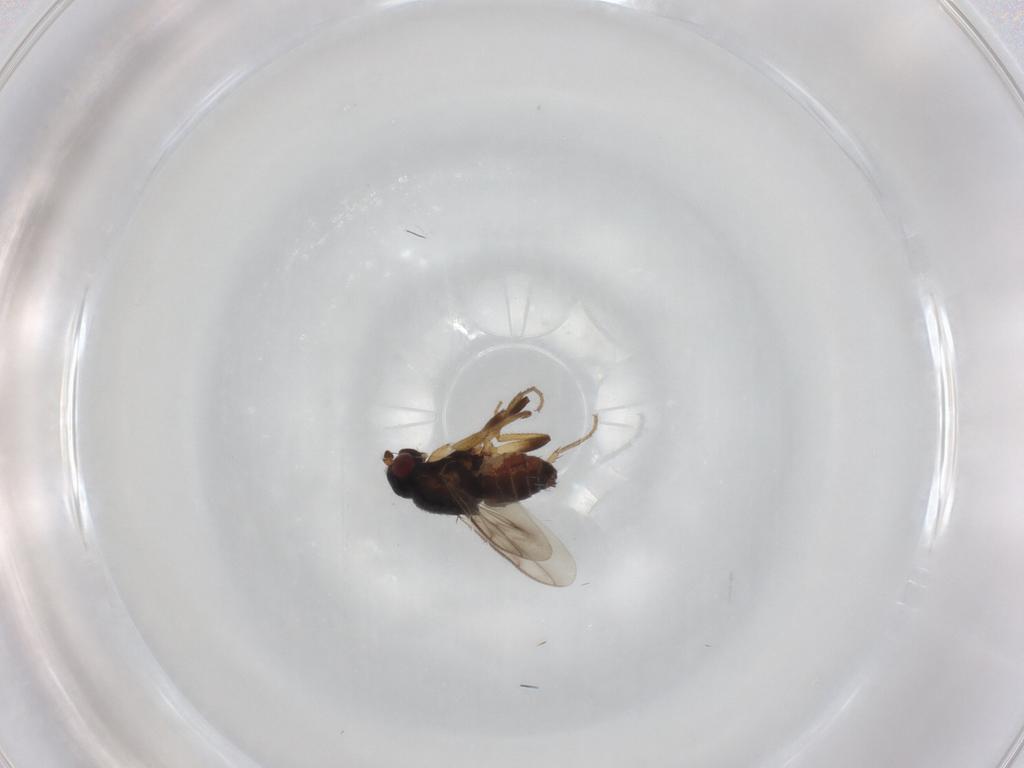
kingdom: Animalia
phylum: Arthropoda
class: Insecta
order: Diptera
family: Sphaeroceridae
